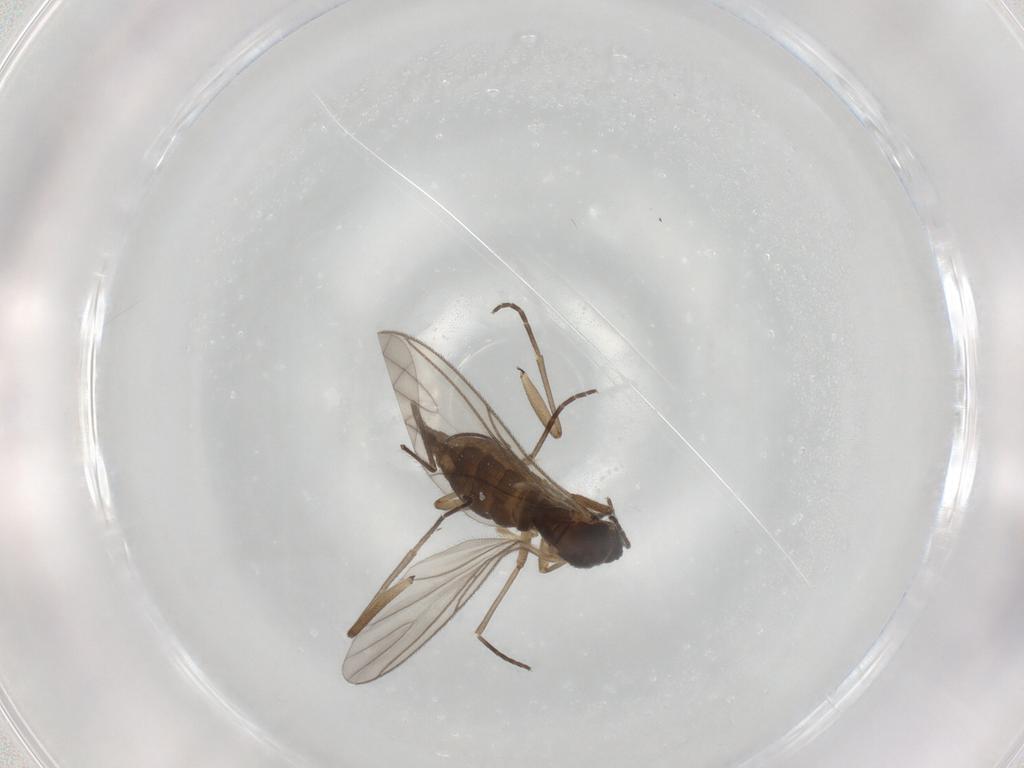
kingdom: Animalia
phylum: Arthropoda
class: Insecta
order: Diptera
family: Chironomidae
